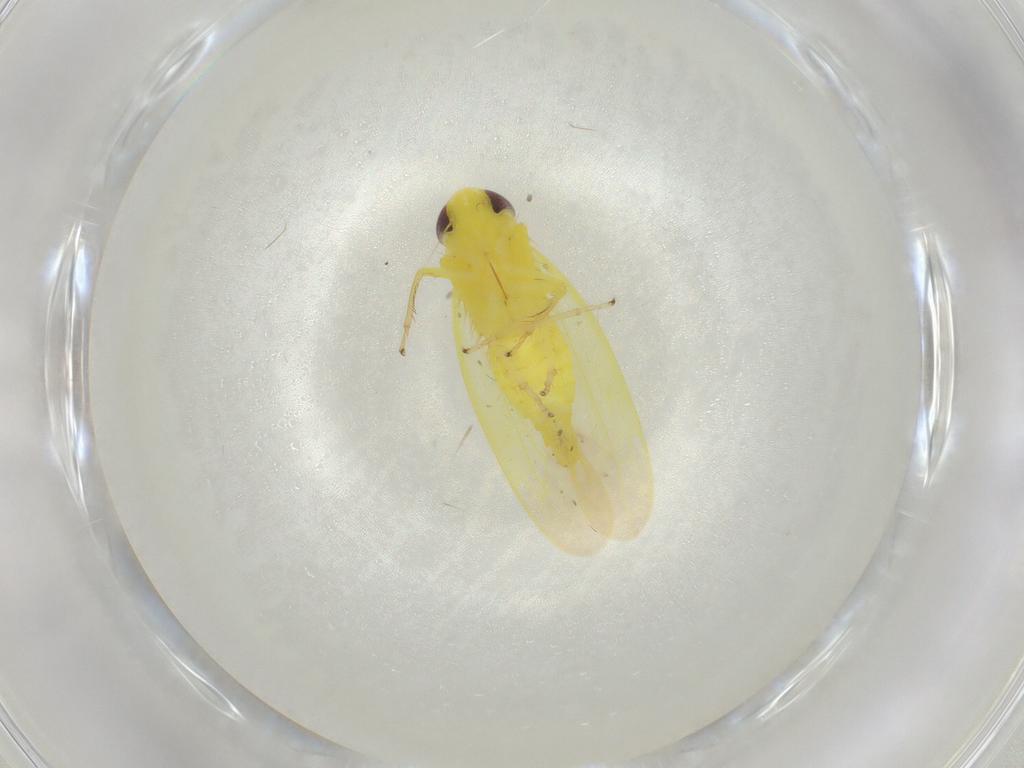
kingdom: Animalia
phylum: Arthropoda
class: Insecta
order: Hemiptera
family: Cicadellidae
